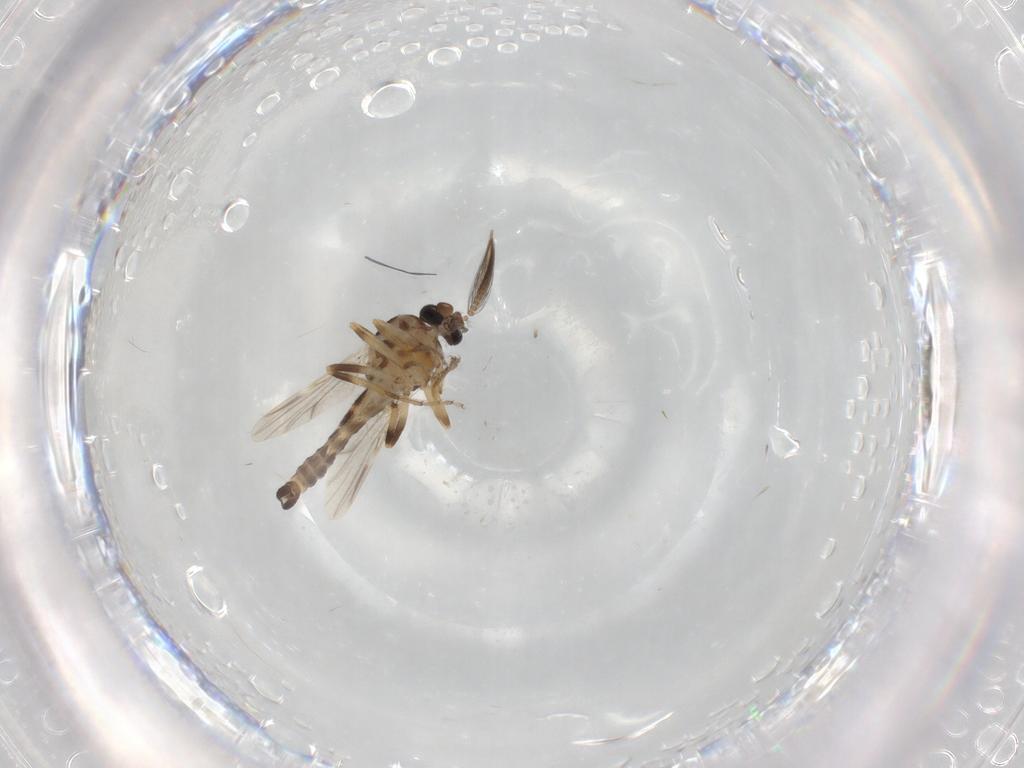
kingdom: Animalia
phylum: Arthropoda
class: Insecta
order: Diptera
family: Ceratopogonidae
